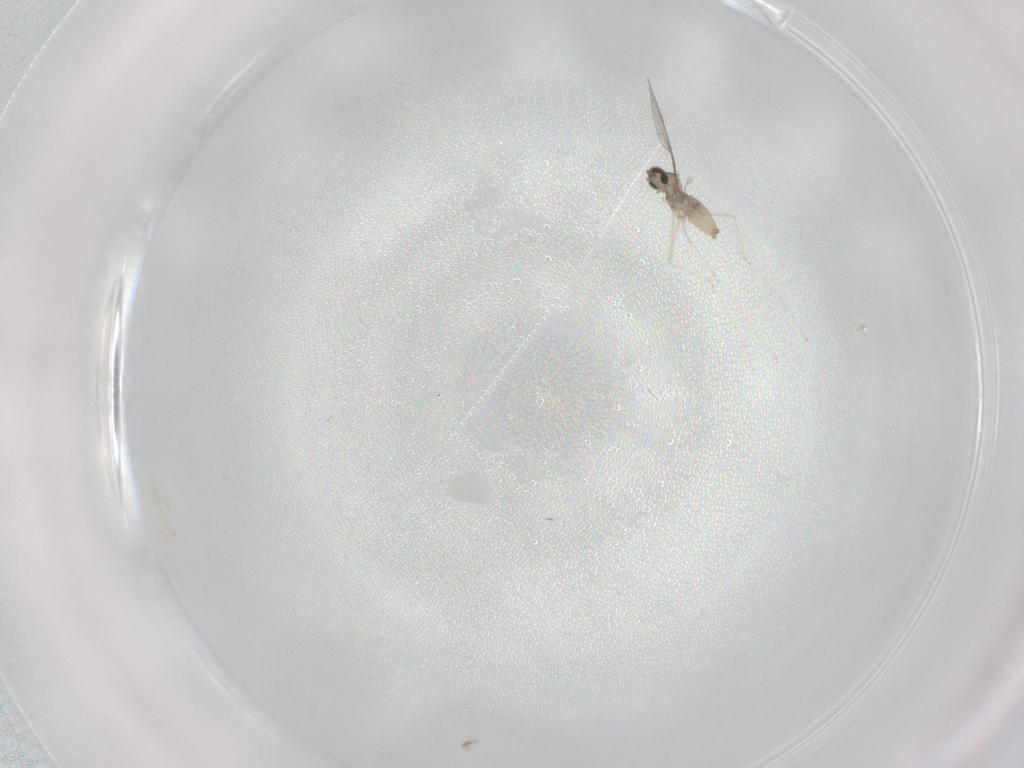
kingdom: Animalia
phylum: Arthropoda
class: Insecta
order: Diptera
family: Cecidomyiidae
